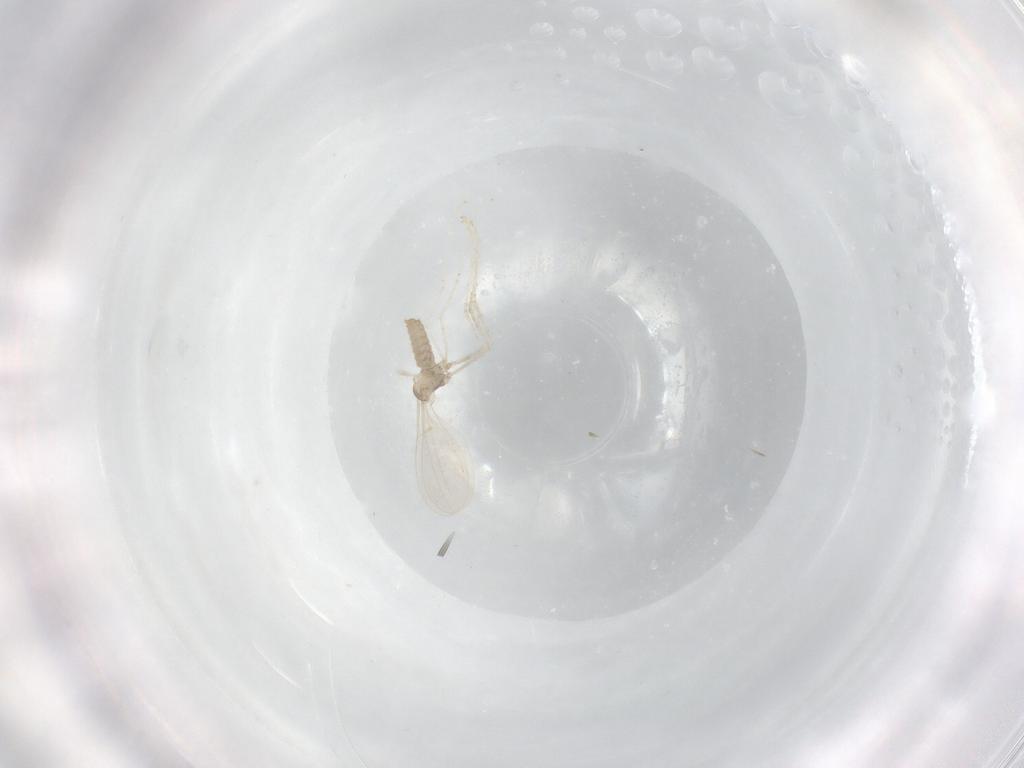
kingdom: Animalia
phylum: Arthropoda
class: Insecta
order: Diptera
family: Cecidomyiidae
